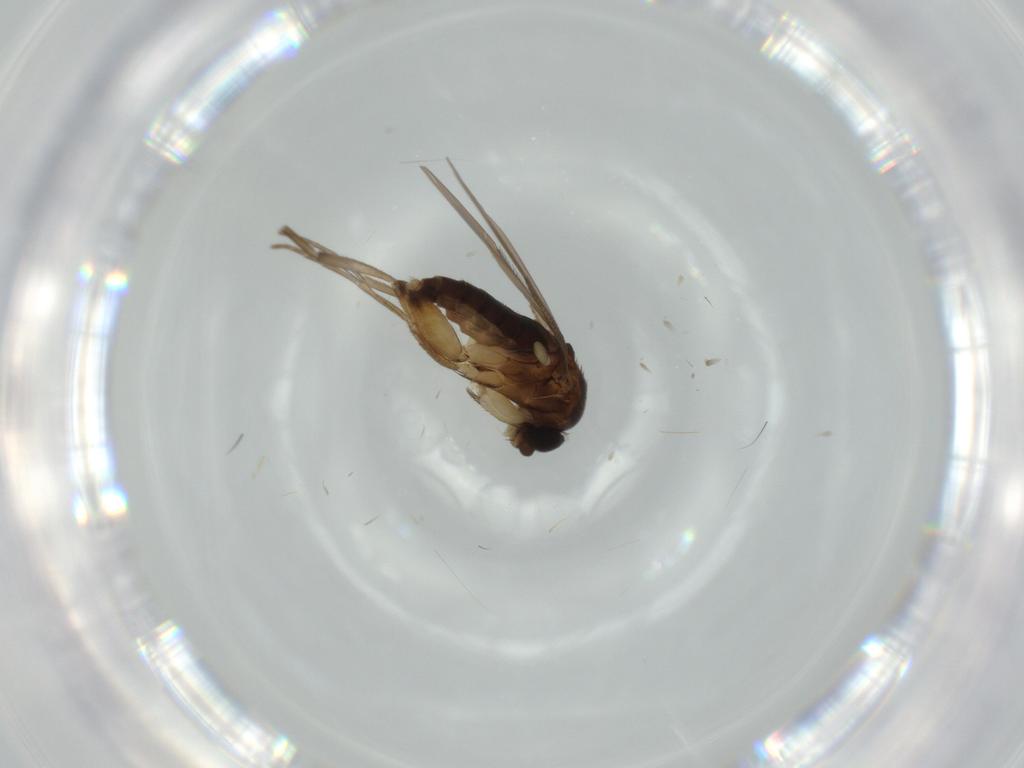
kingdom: Animalia
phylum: Arthropoda
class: Insecta
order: Diptera
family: Phoridae
